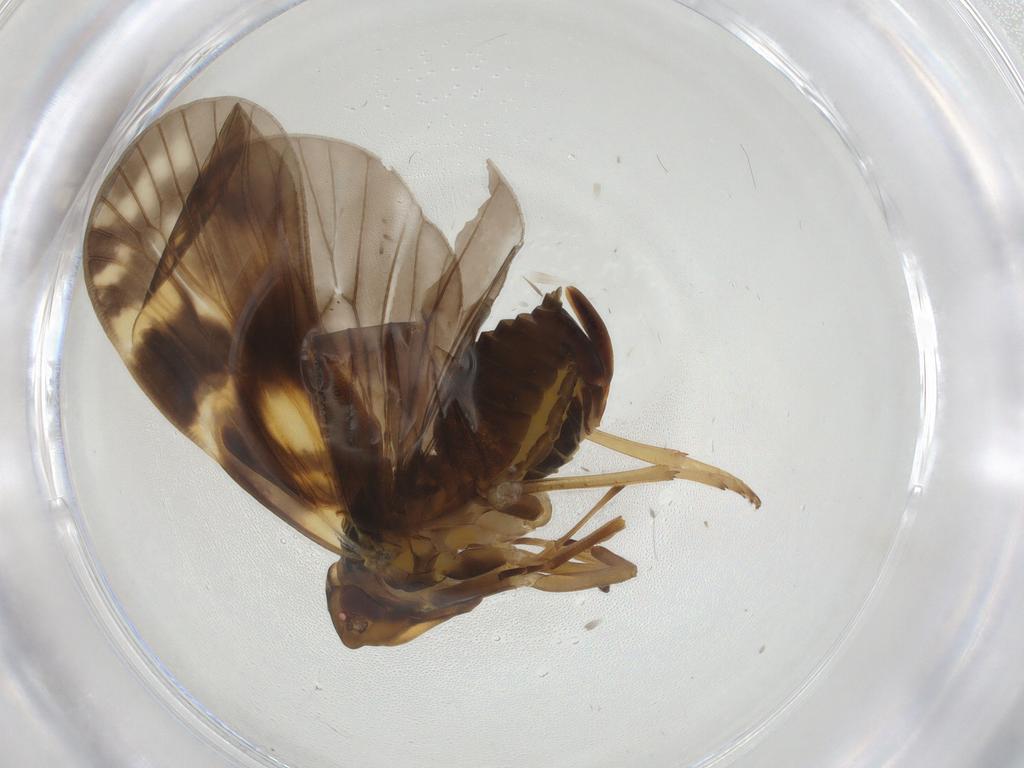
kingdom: Animalia
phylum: Arthropoda
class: Insecta
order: Hemiptera
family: Cixiidae
